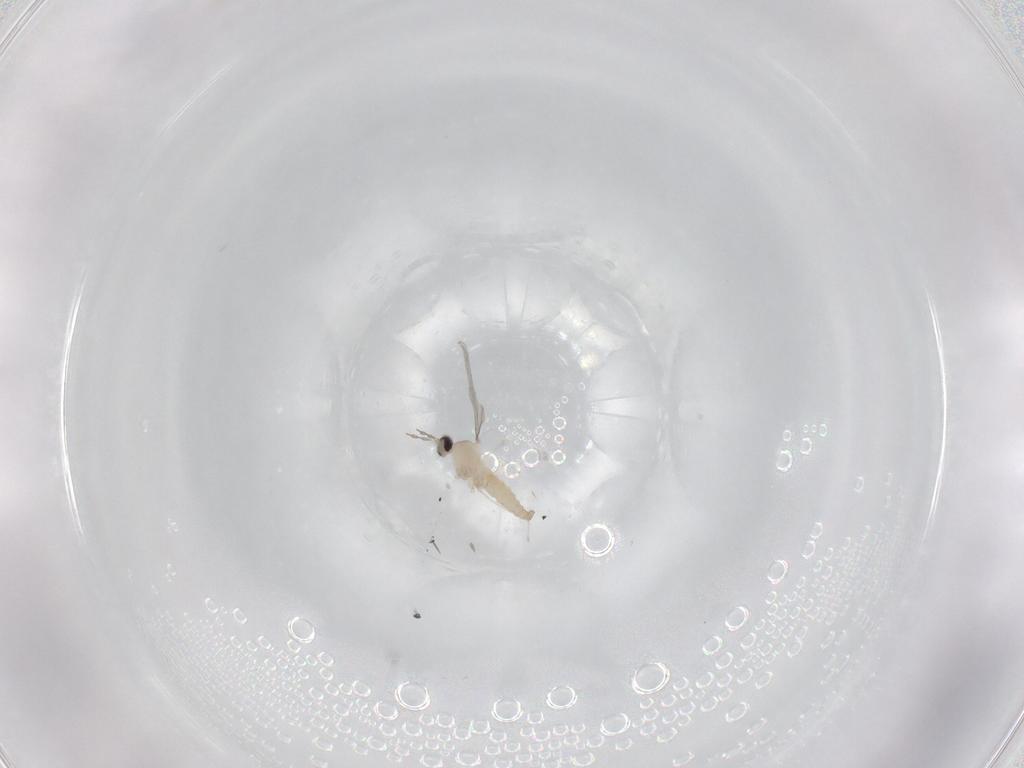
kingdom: Animalia
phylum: Arthropoda
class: Insecta
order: Diptera
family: Cecidomyiidae
